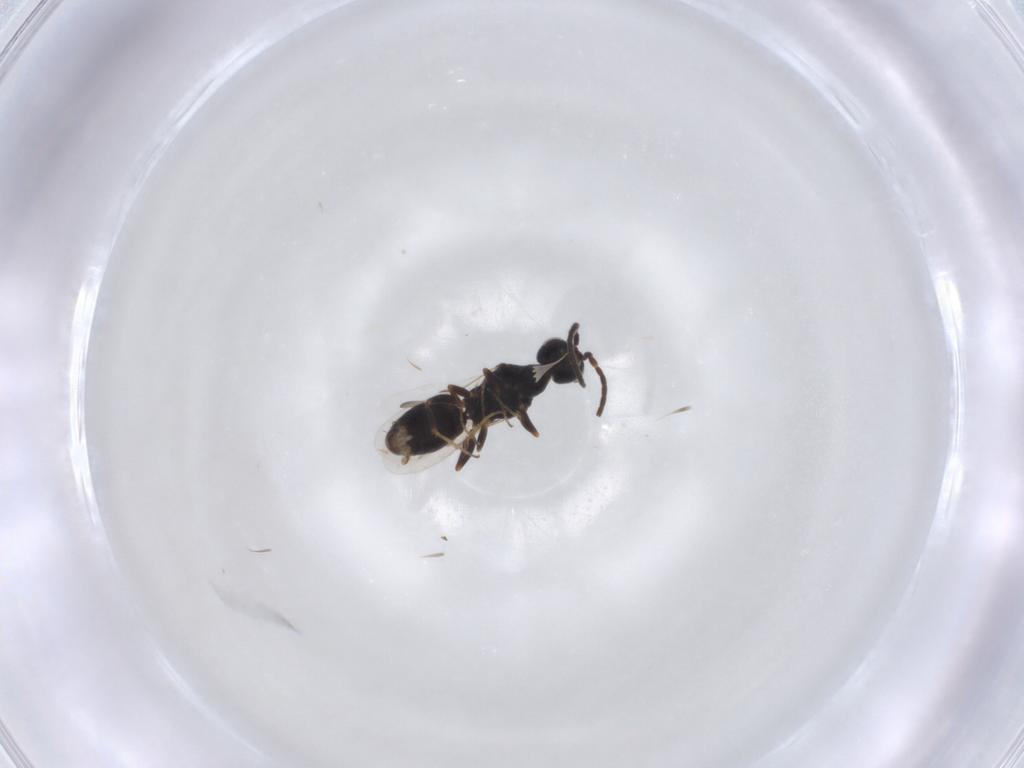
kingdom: Animalia
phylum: Arthropoda
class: Insecta
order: Hymenoptera
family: Bethylidae
